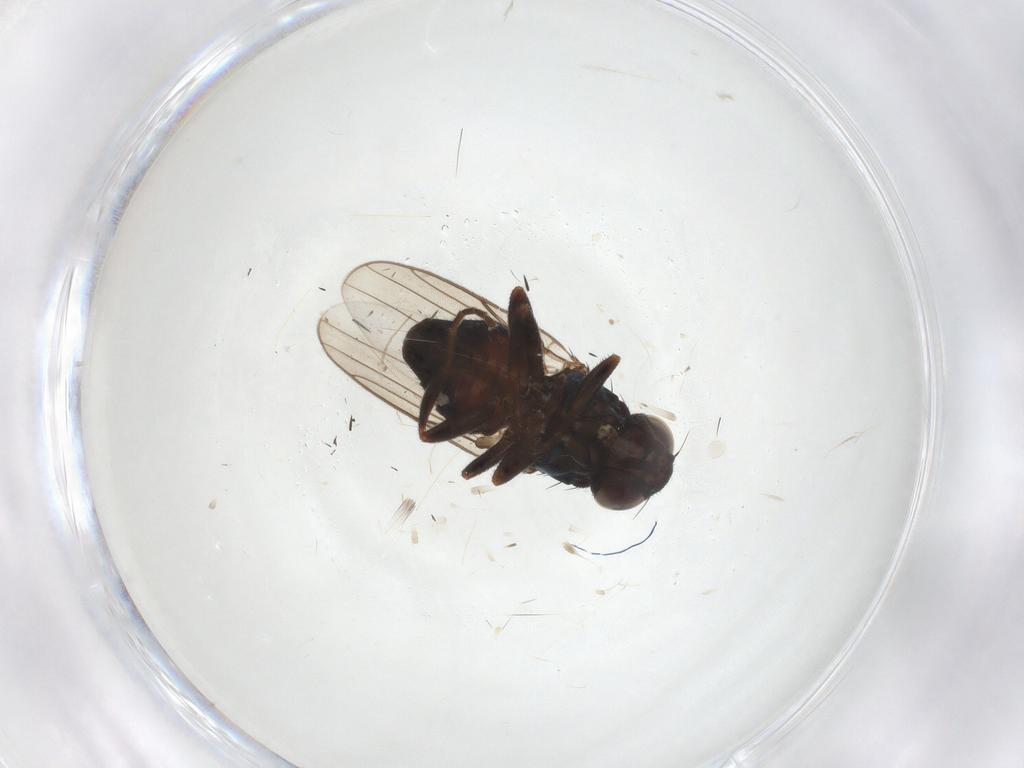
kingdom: Animalia
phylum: Arthropoda
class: Insecta
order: Diptera
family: Chloropidae
